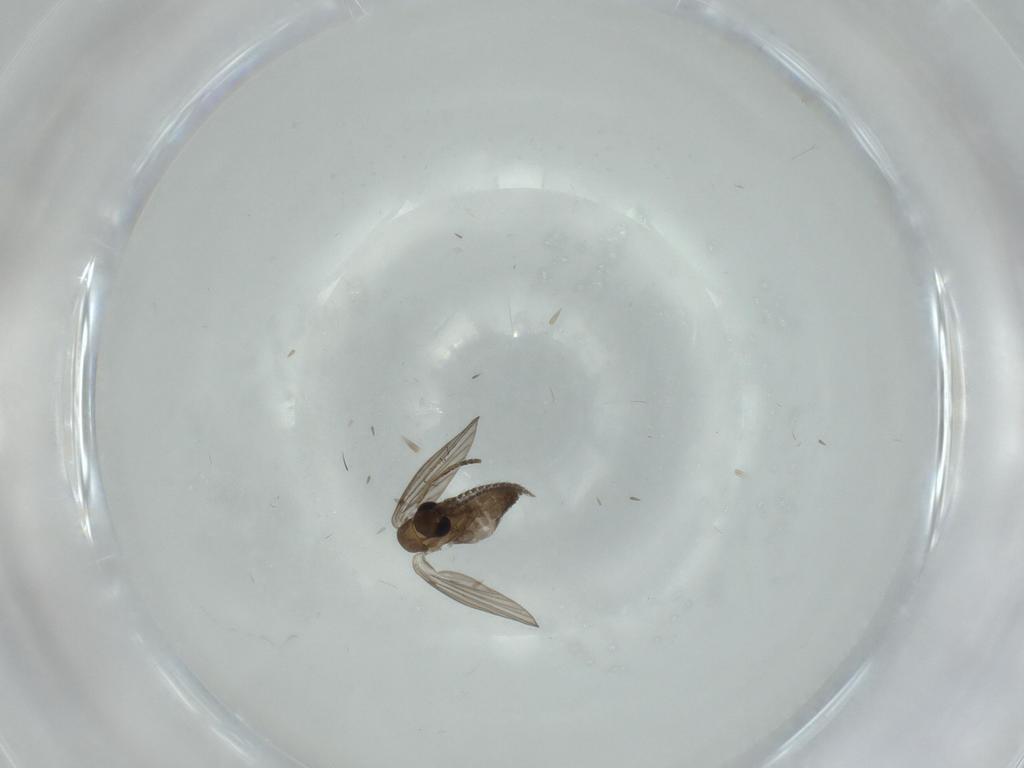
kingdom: Animalia
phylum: Arthropoda
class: Insecta
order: Diptera
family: Psychodidae
